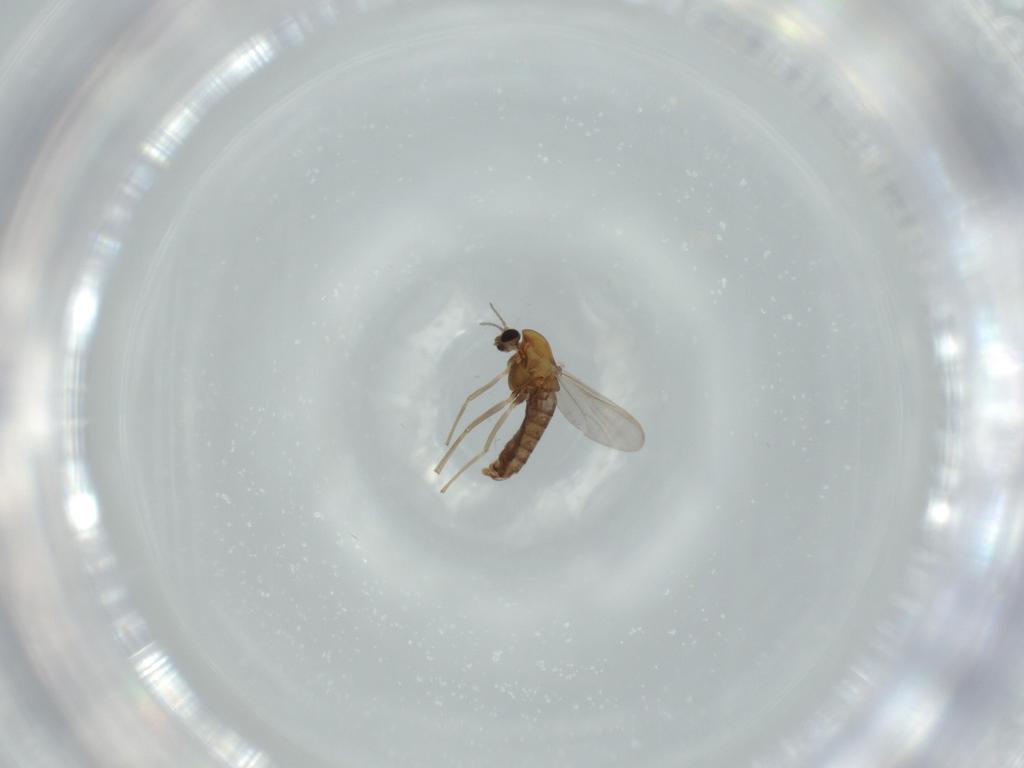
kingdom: Animalia
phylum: Arthropoda
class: Insecta
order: Diptera
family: Chironomidae
